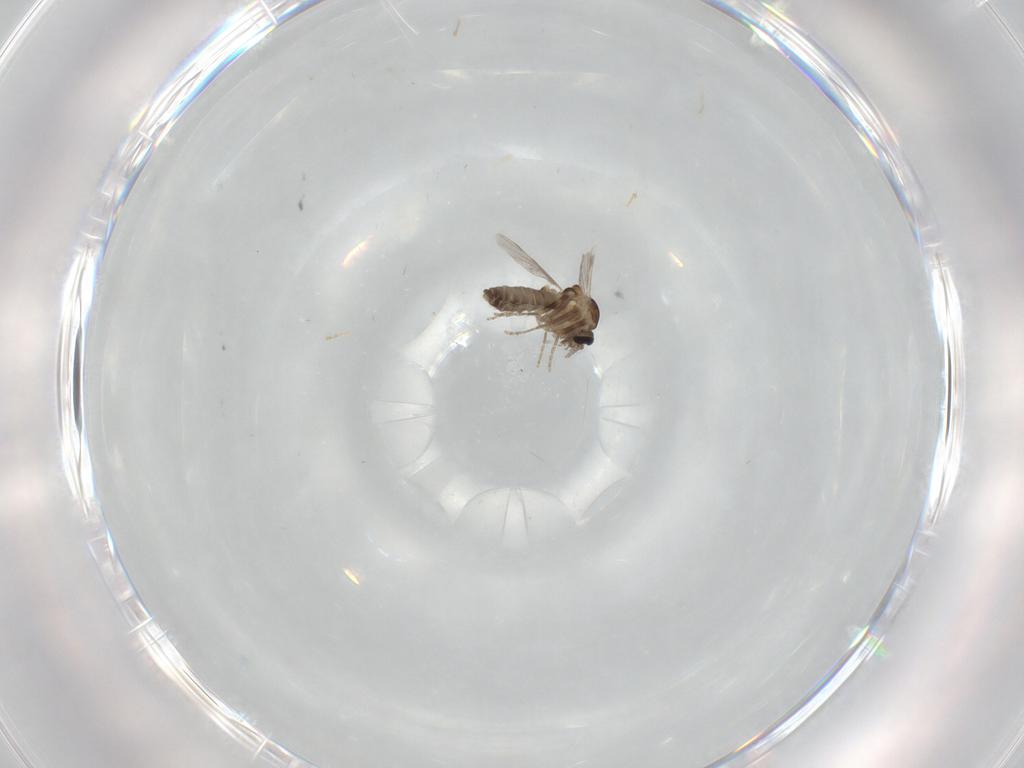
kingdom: Animalia
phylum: Arthropoda
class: Insecta
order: Diptera
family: Ceratopogonidae
